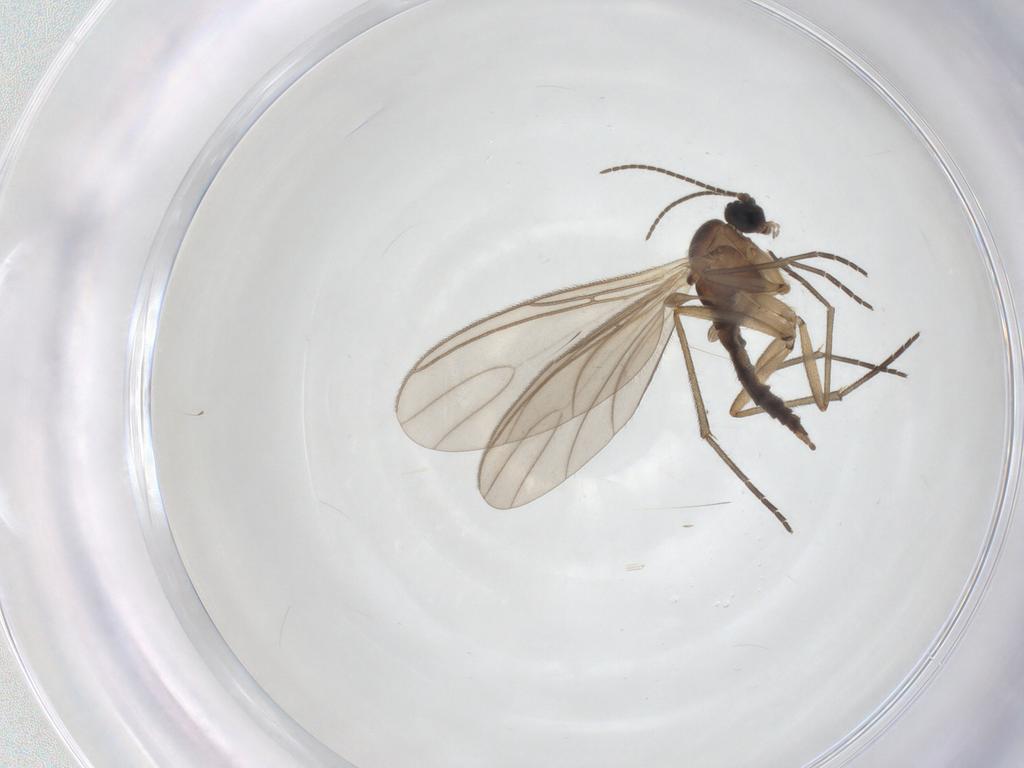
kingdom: Animalia
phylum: Arthropoda
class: Insecta
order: Diptera
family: Sciaridae
